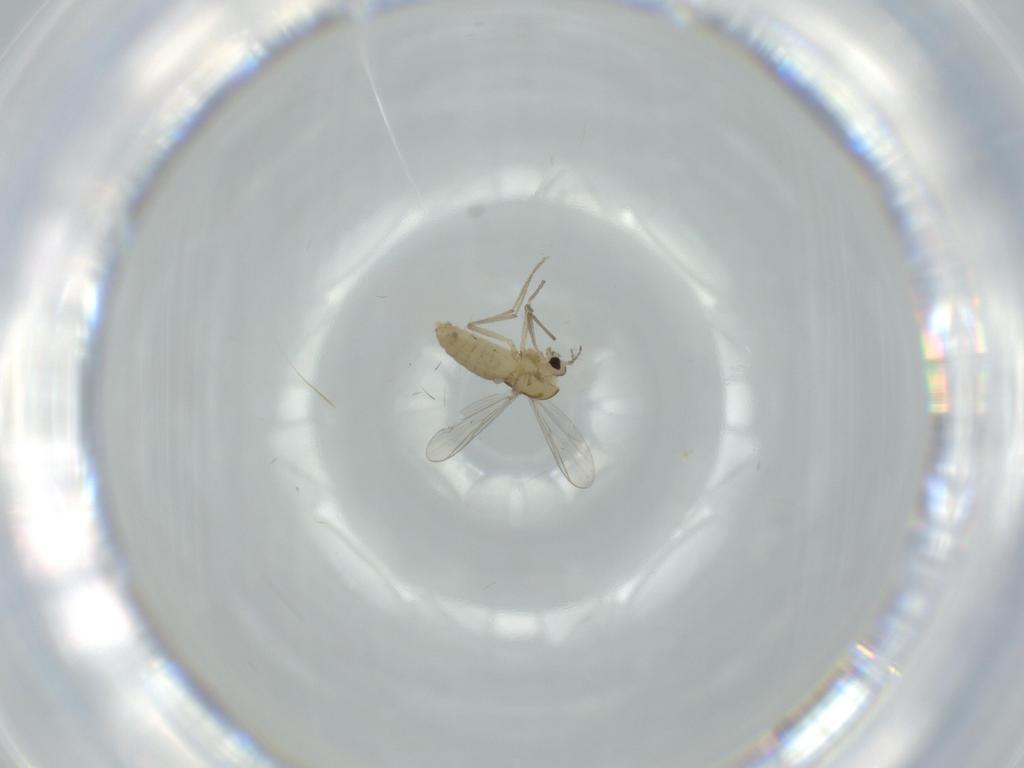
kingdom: Animalia
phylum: Arthropoda
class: Insecta
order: Diptera
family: Chironomidae
